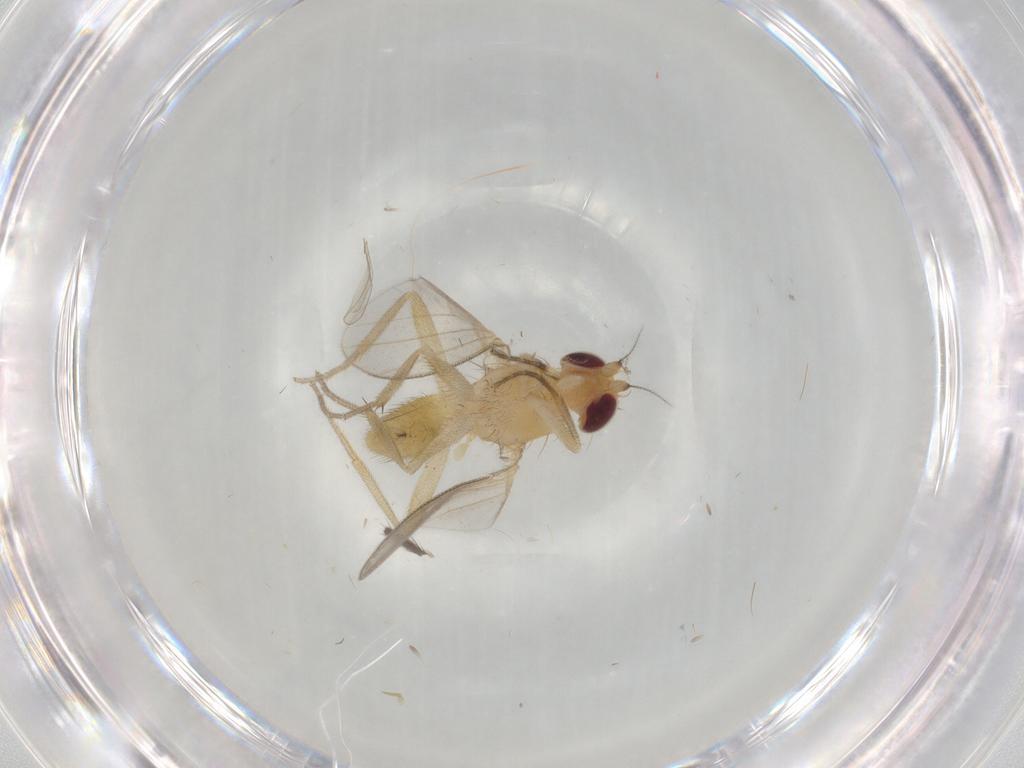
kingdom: Animalia
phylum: Arthropoda
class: Insecta
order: Diptera
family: Clusiidae
